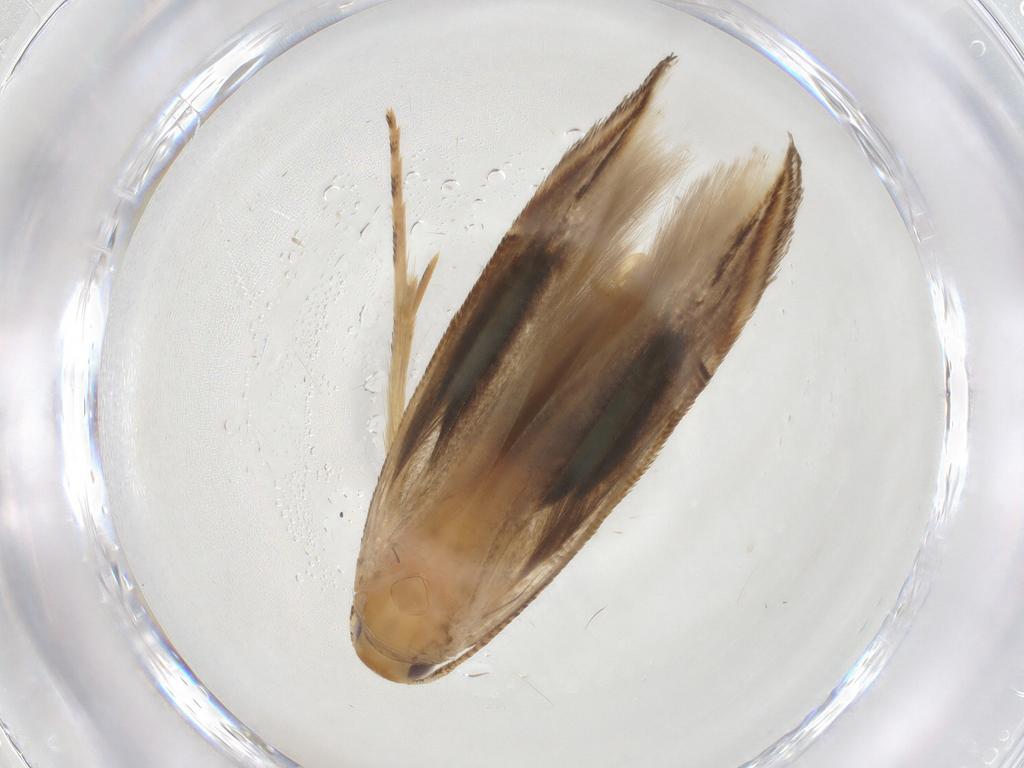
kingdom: Animalia
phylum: Arthropoda
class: Insecta
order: Lepidoptera
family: Momphidae
